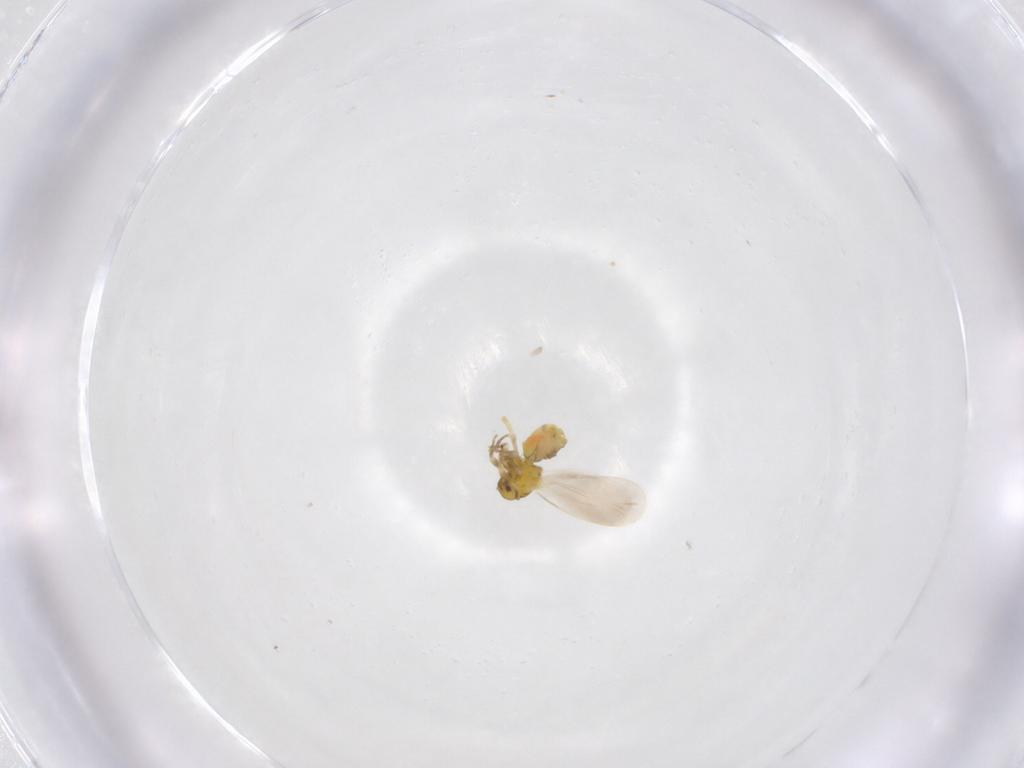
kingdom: Animalia
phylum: Arthropoda
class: Insecta
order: Hemiptera
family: Aleyrodidae
